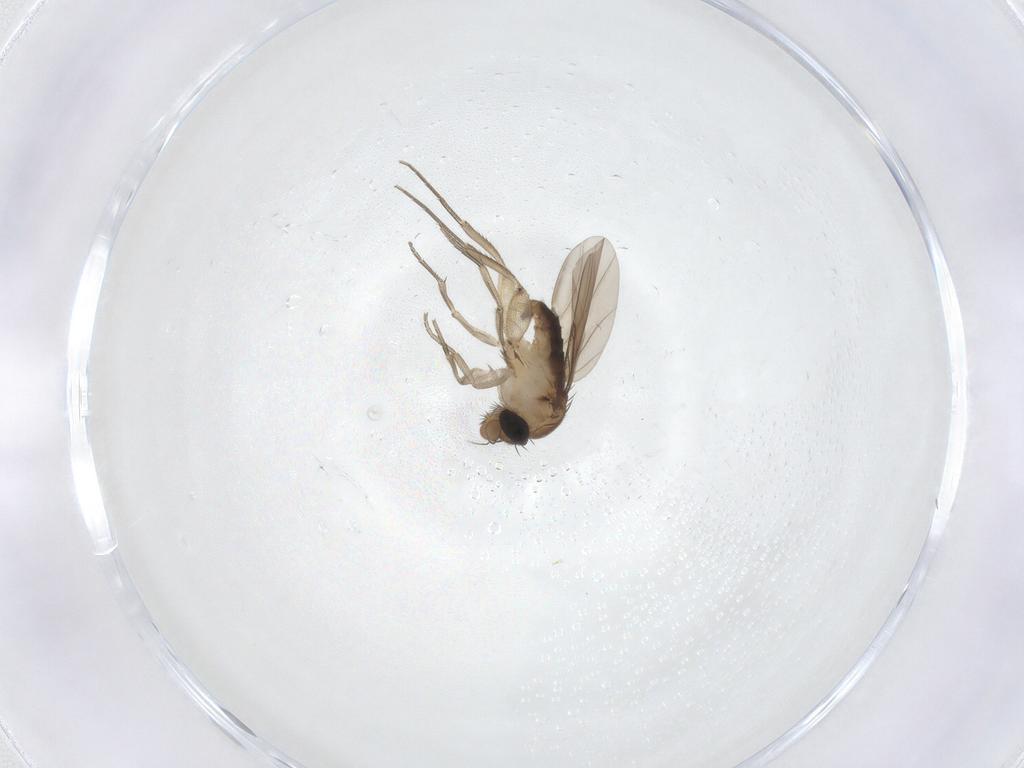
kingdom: Animalia
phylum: Arthropoda
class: Insecta
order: Diptera
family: Phoridae
